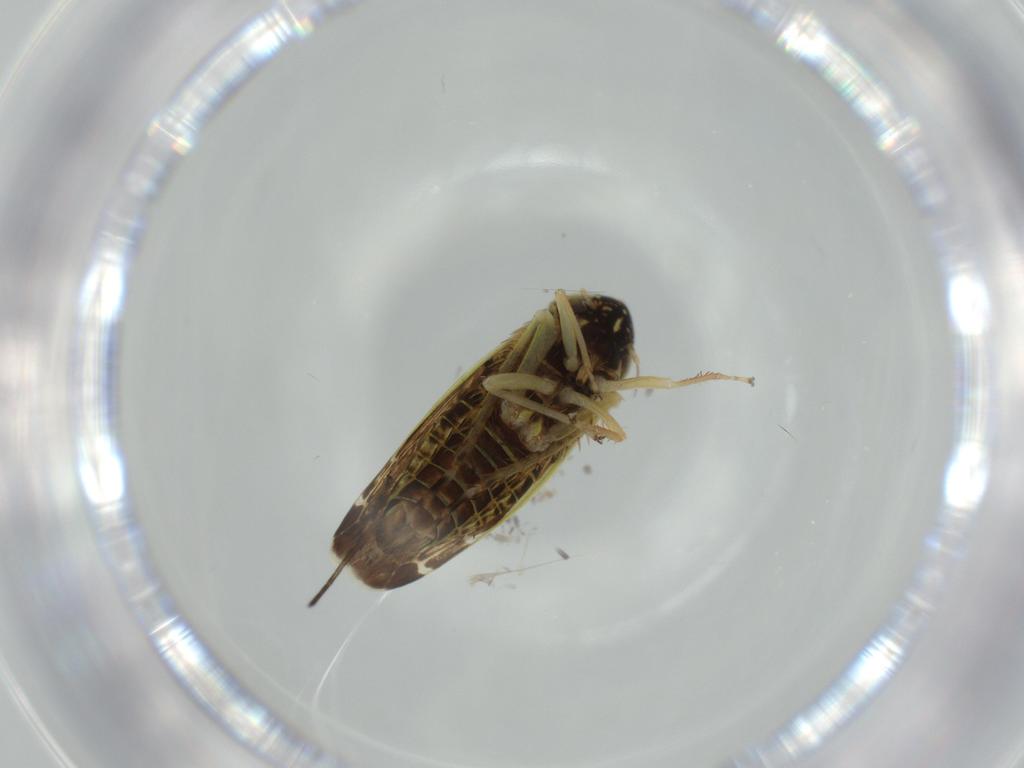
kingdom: Animalia
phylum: Arthropoda
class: Insecta
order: Hemiptera
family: Cicadellidae
